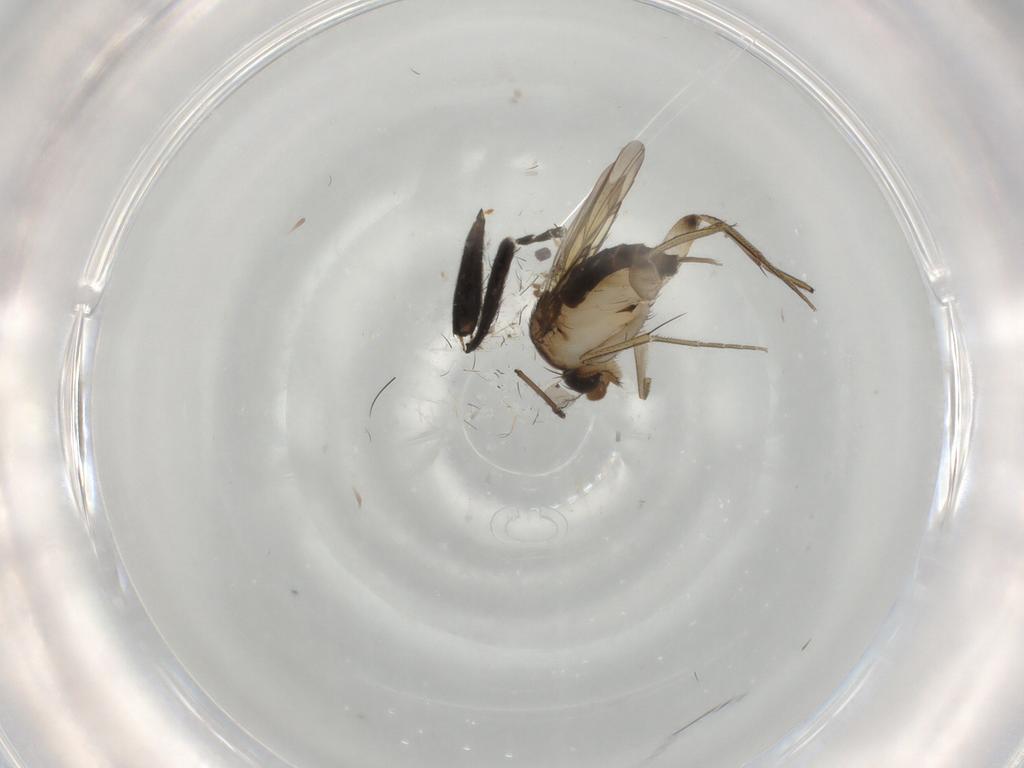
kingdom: Animalia
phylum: Arthropoda
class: Insecta
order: Diptera
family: Phoridae
